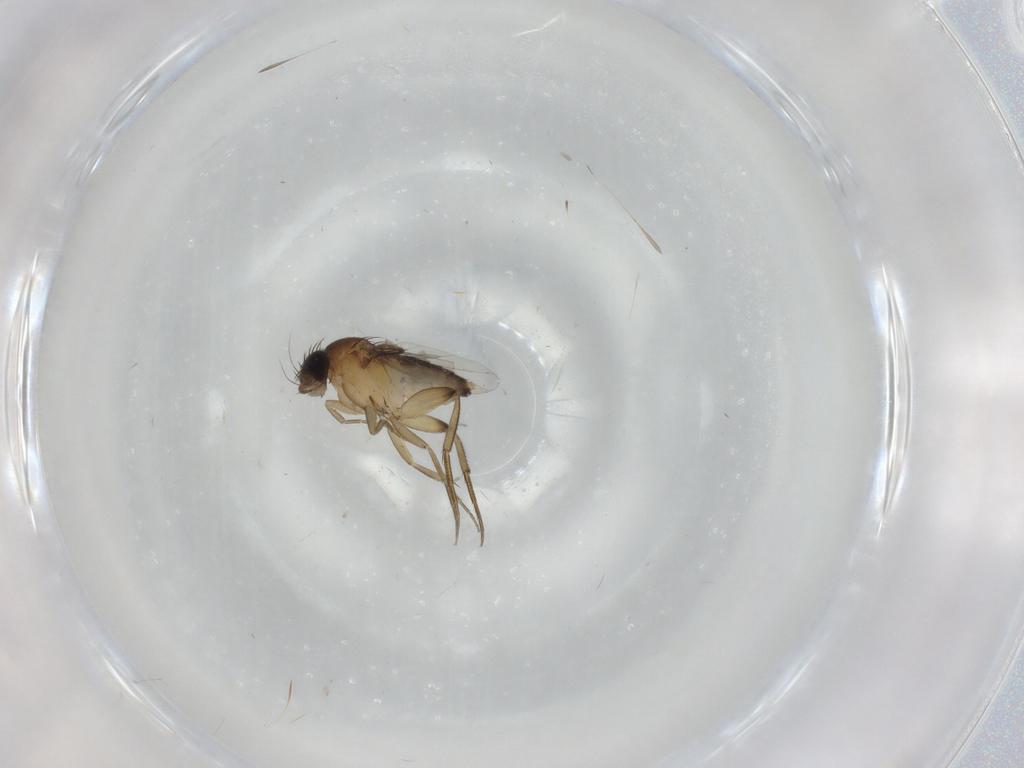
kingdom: Animalia
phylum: Arthropoda
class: Insecta
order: Diptera
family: Phoridae
